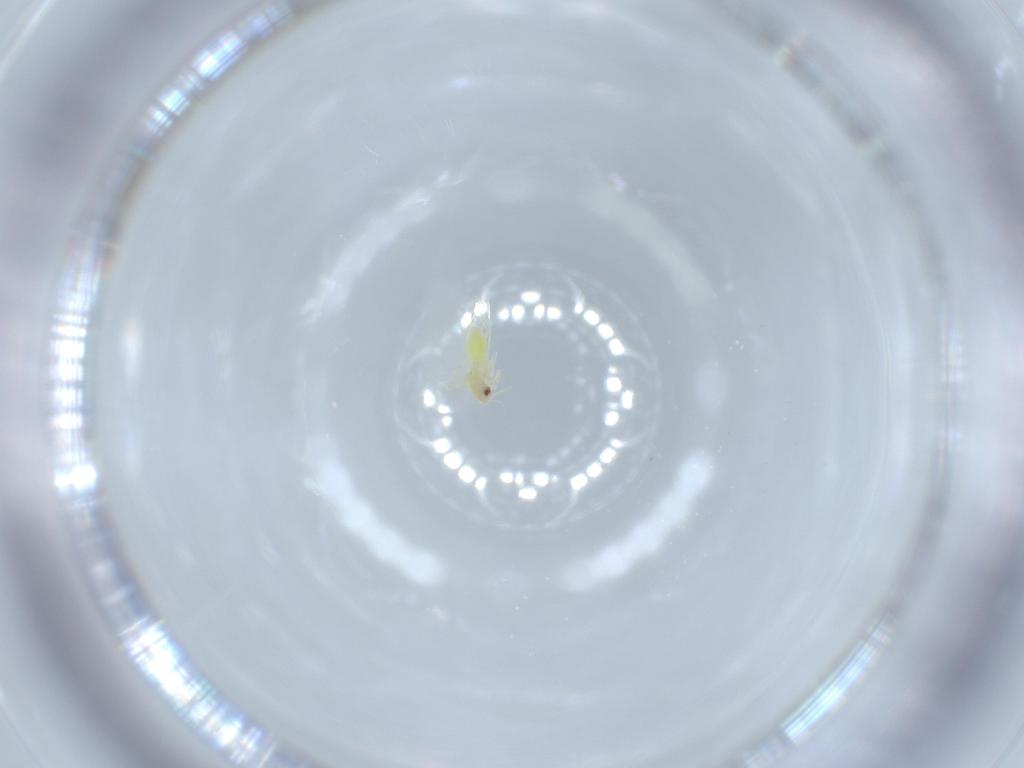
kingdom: Animalia
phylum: Arthropoda
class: Insecta
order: Hemiptera
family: Aleyrodidae
